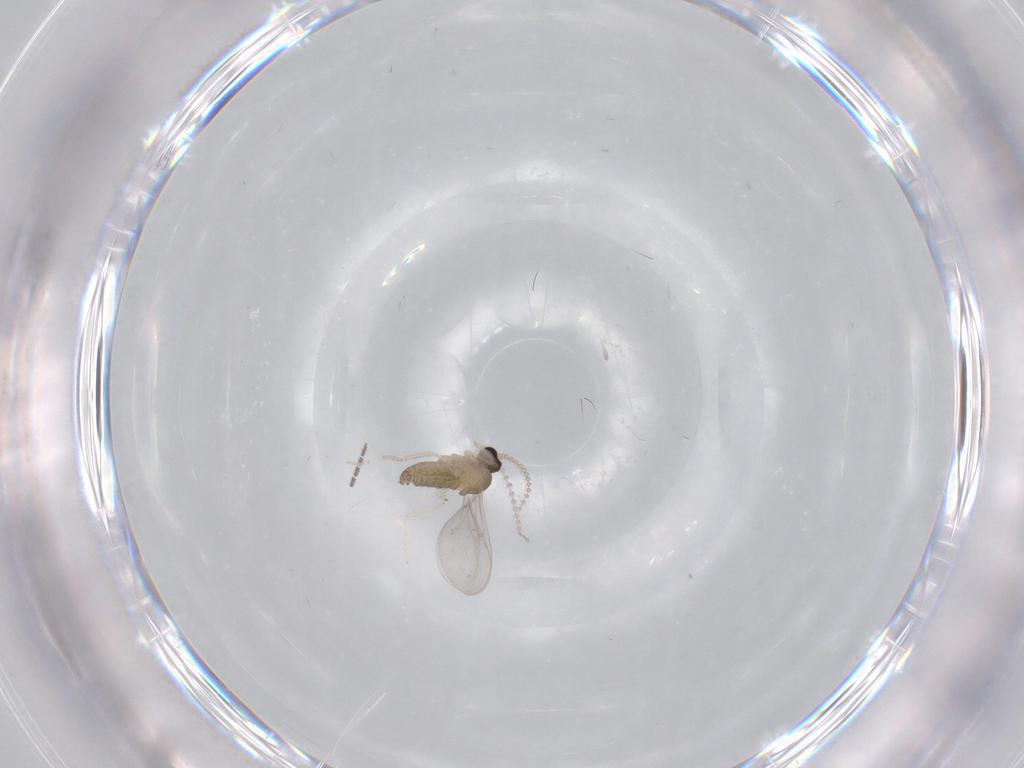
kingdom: Animalia
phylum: Arthropoda
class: Insecta
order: Diptera
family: Cecidomyiidae
